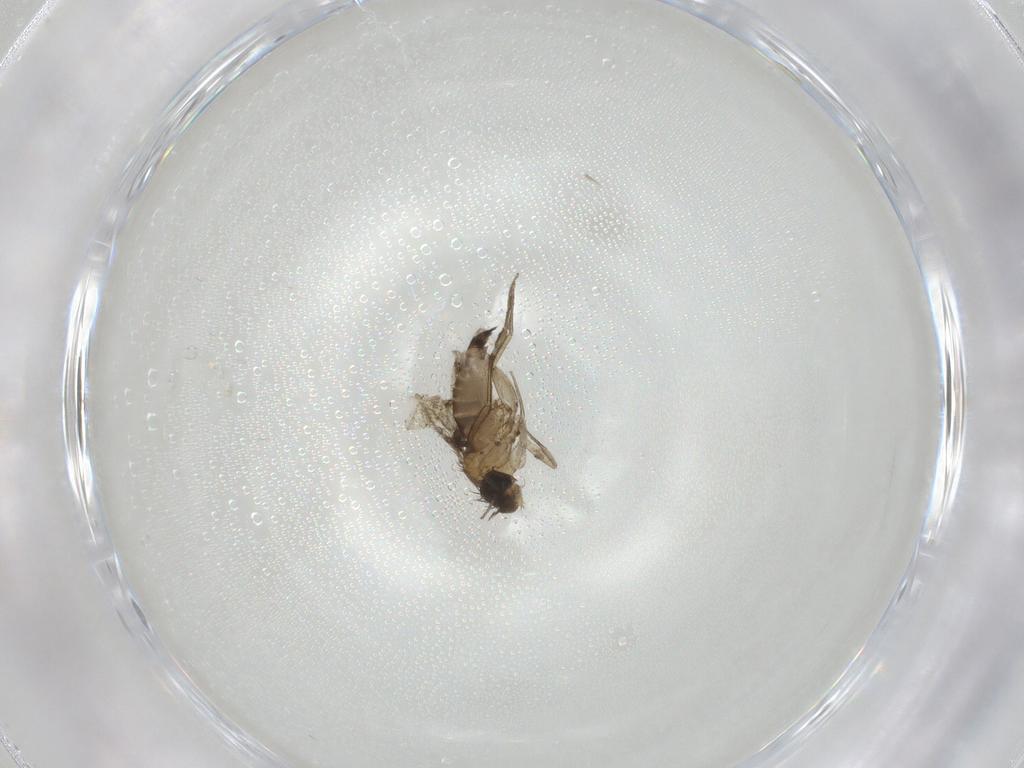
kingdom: Animalia
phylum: Arthropoda
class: Insecta
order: Diptera
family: Phoridae
